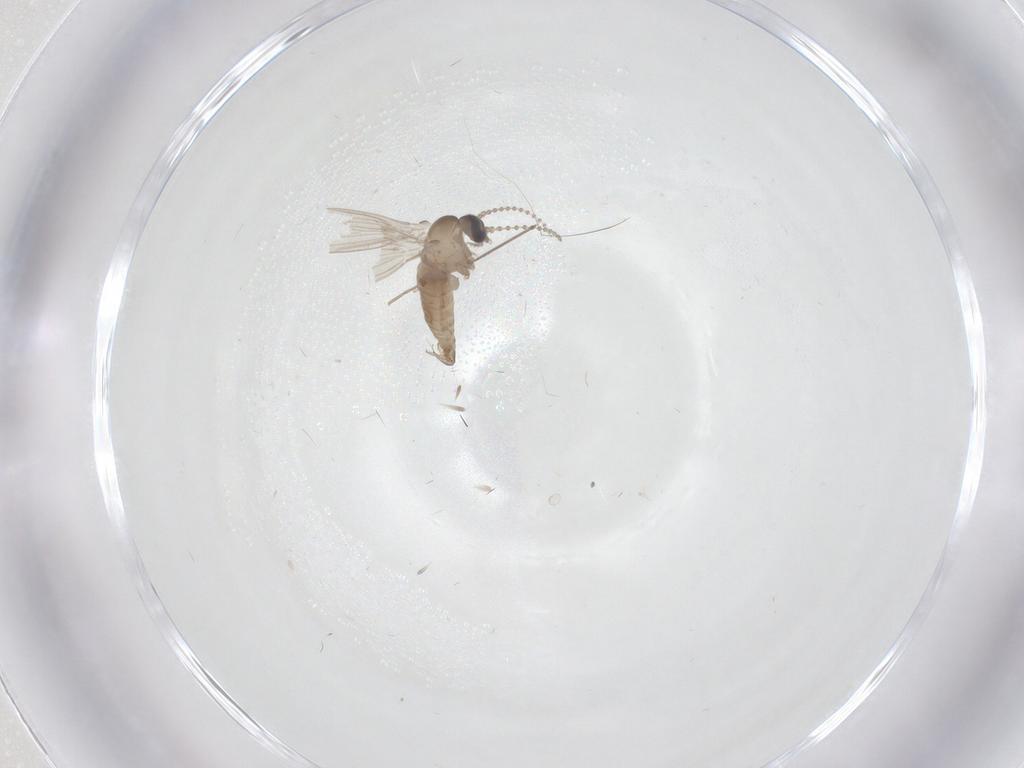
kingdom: Animalia
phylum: Arthropoda
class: Insecta
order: Diptera
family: Psychodidae
